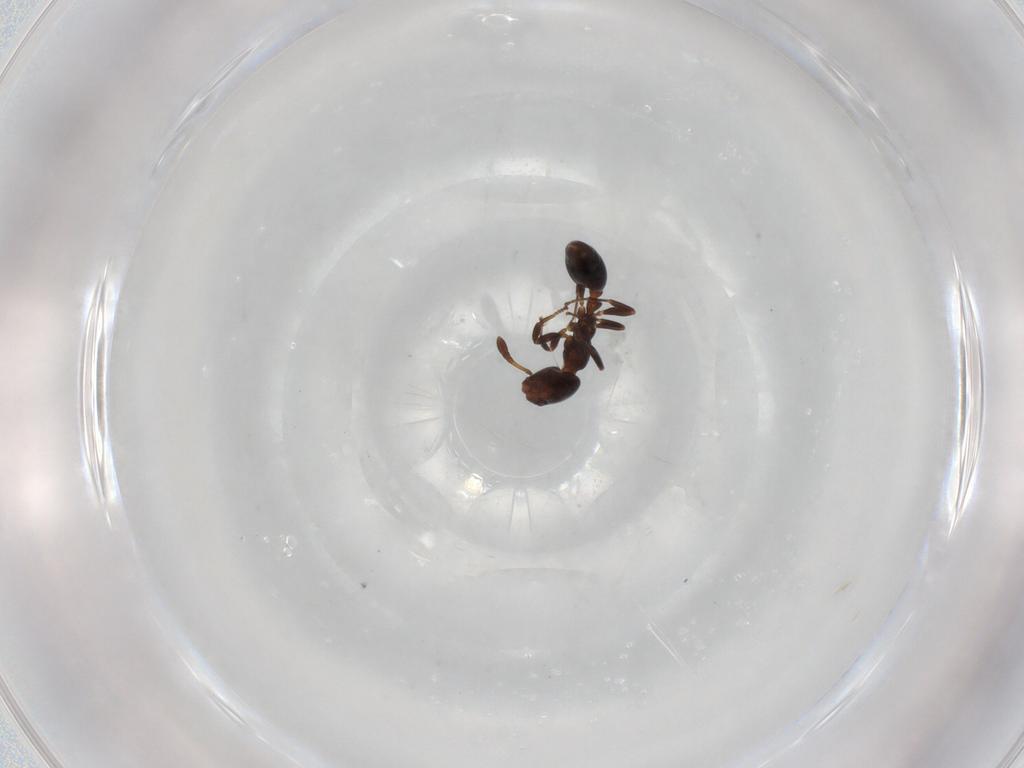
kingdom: Animalia
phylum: Arthropoda
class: Insecta
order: Hymenoptera
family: Formicidae
